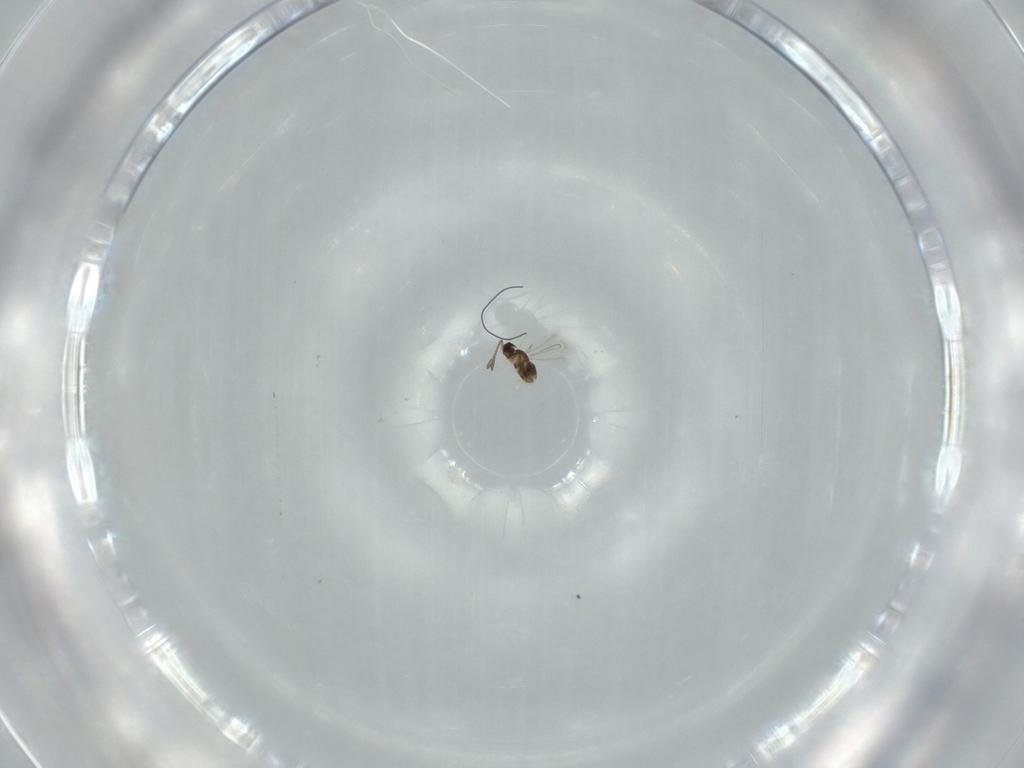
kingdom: Animalia
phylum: Arthropoda
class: Insecta
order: Hymenoptera
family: Mymaridae
